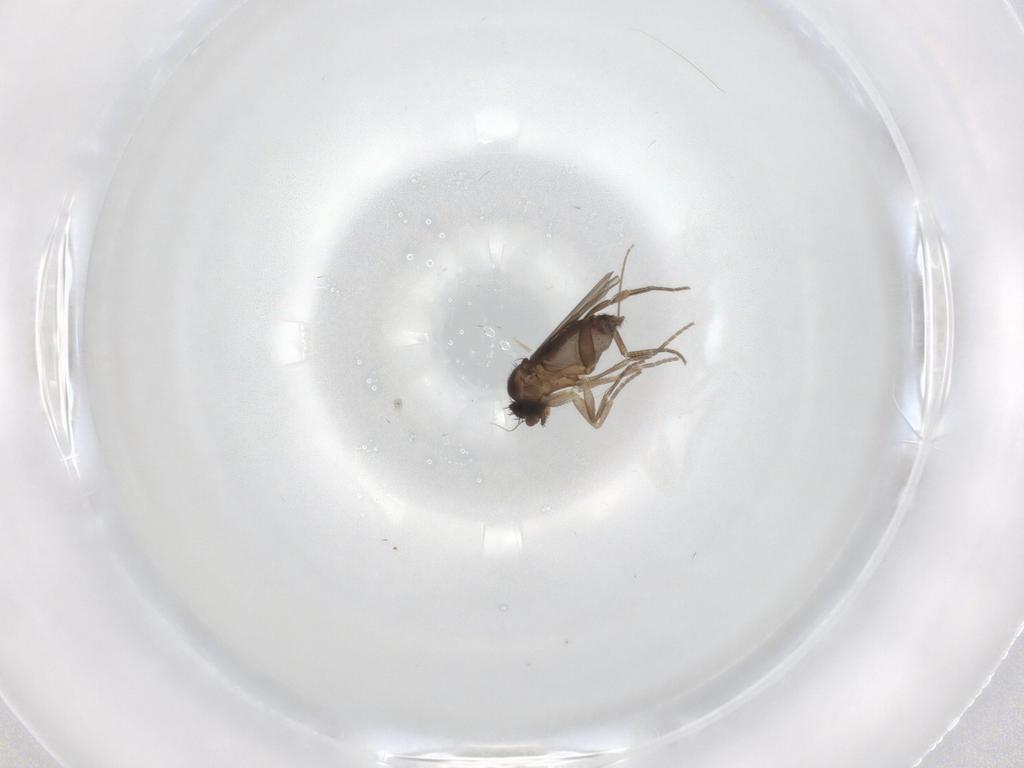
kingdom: Animalia
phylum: Arthropoda
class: Insecta
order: Diptera
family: Phoridae
